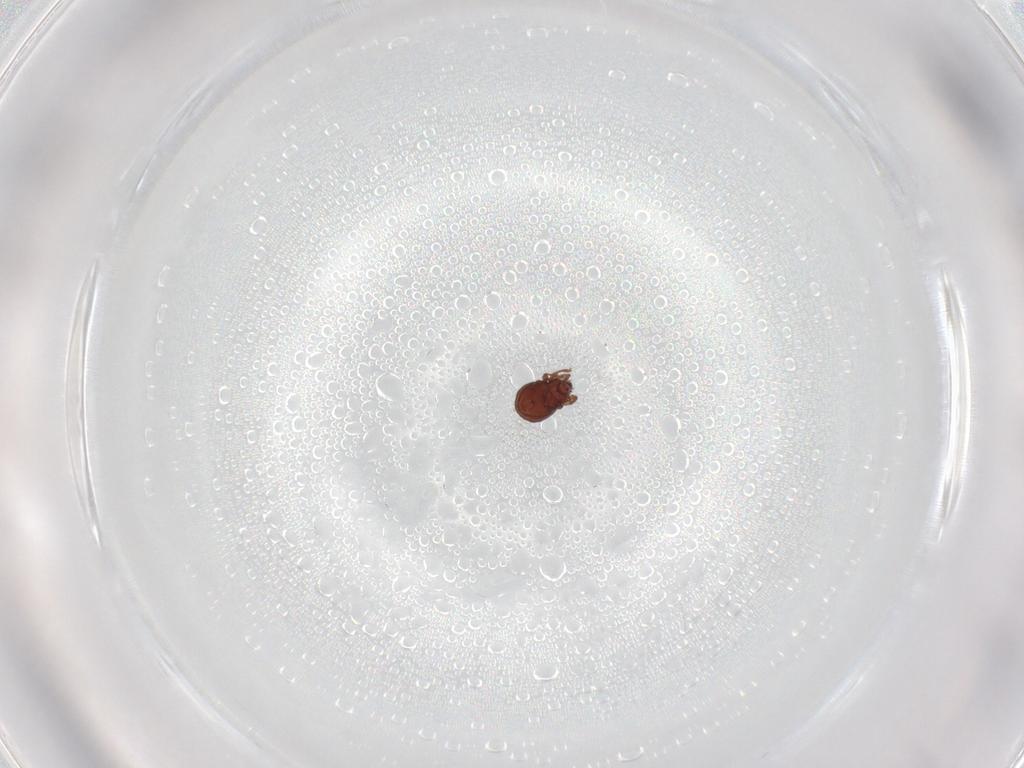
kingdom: Animalia
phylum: Arthropoda
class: Arachnida
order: Sarcoptiformes
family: Scheloribatidae
